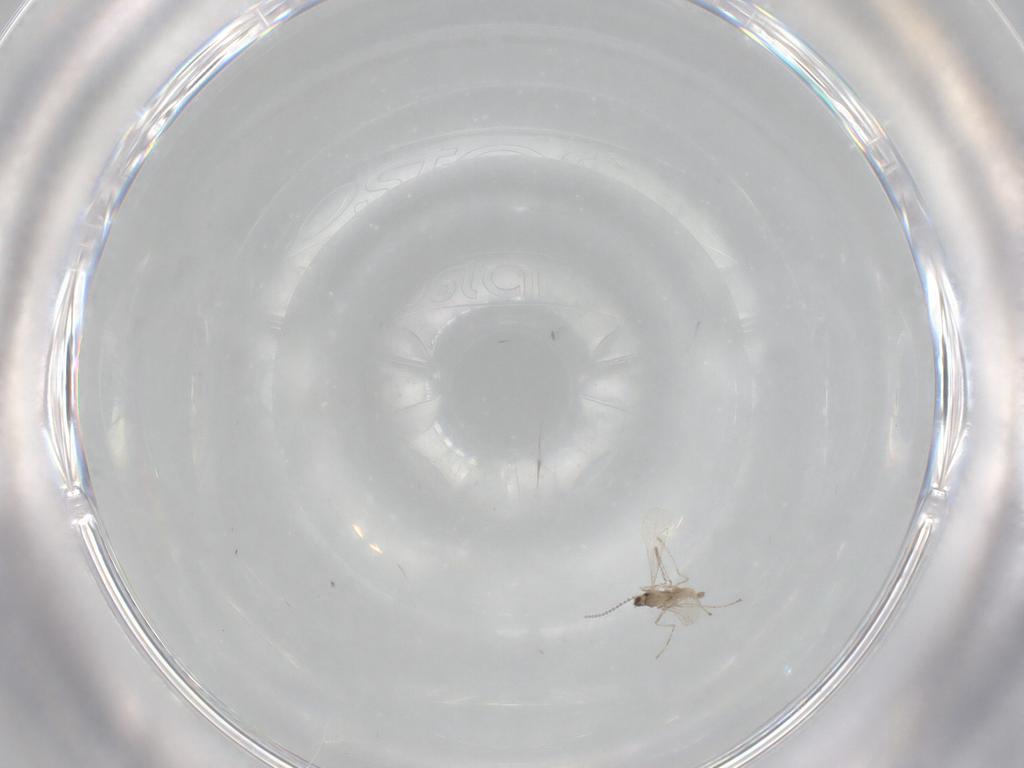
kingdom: Animalia
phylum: Arthropoda
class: Insecta
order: Diptera
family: Cecidomyiidae
